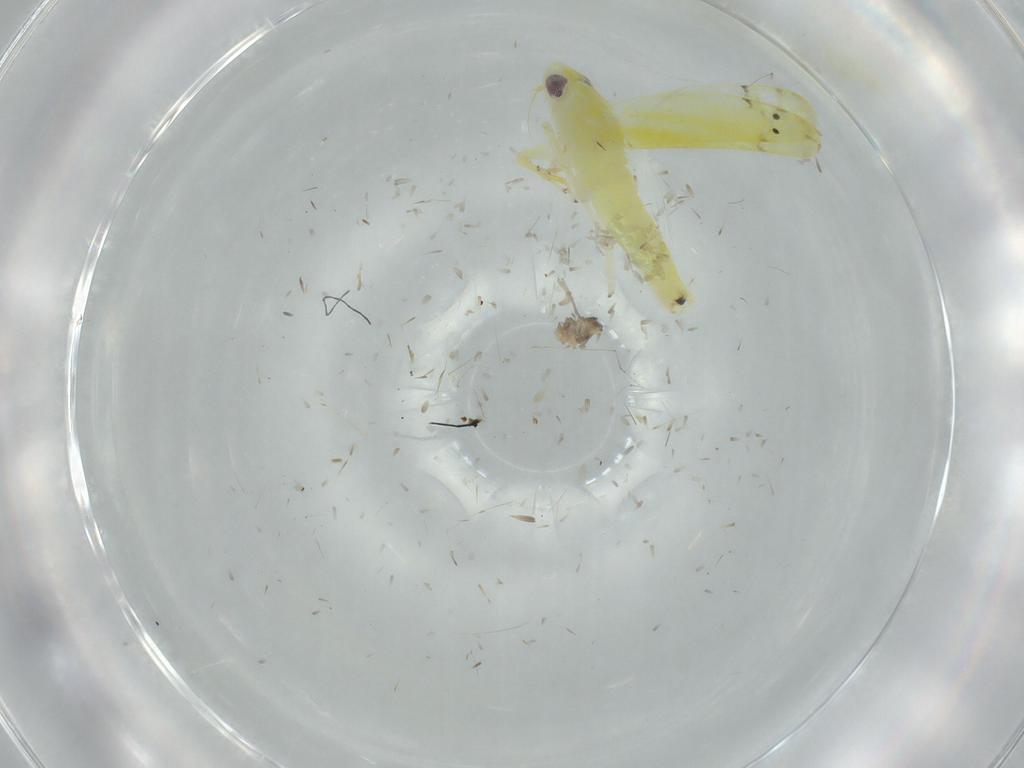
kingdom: Animalia
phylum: Arthropoda
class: Insecta
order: Hemiptera
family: Cicadellidae
